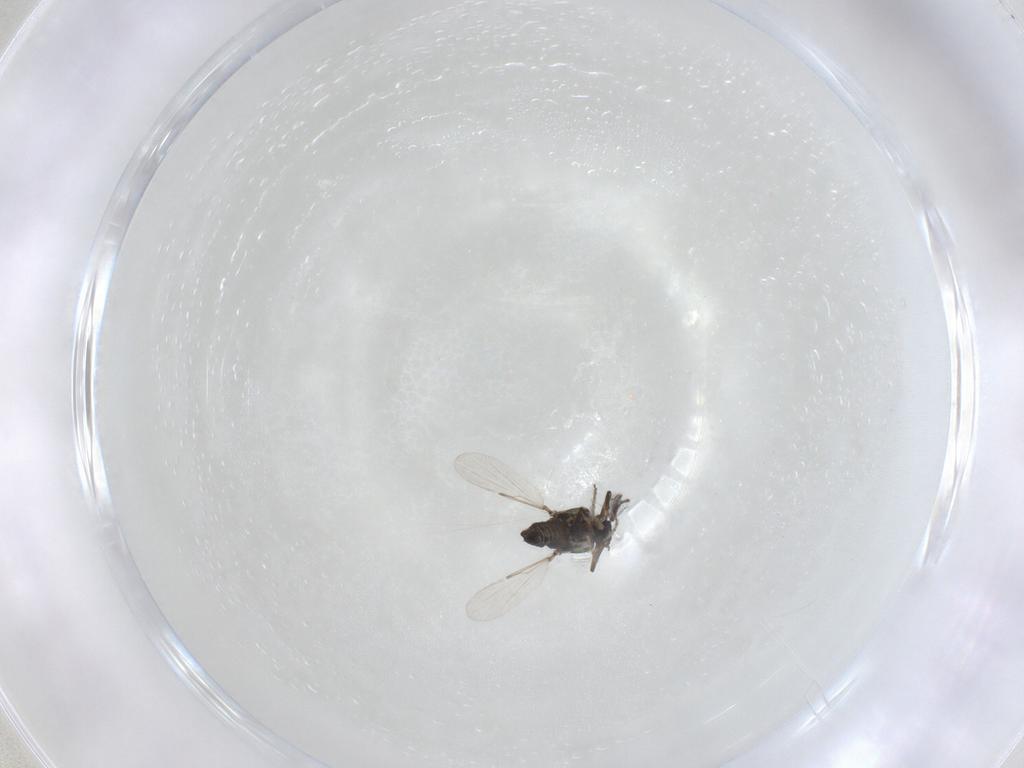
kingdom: Animalia
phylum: Arthropoda
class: Insecta
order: Diptera
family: Ceratopogonidae
